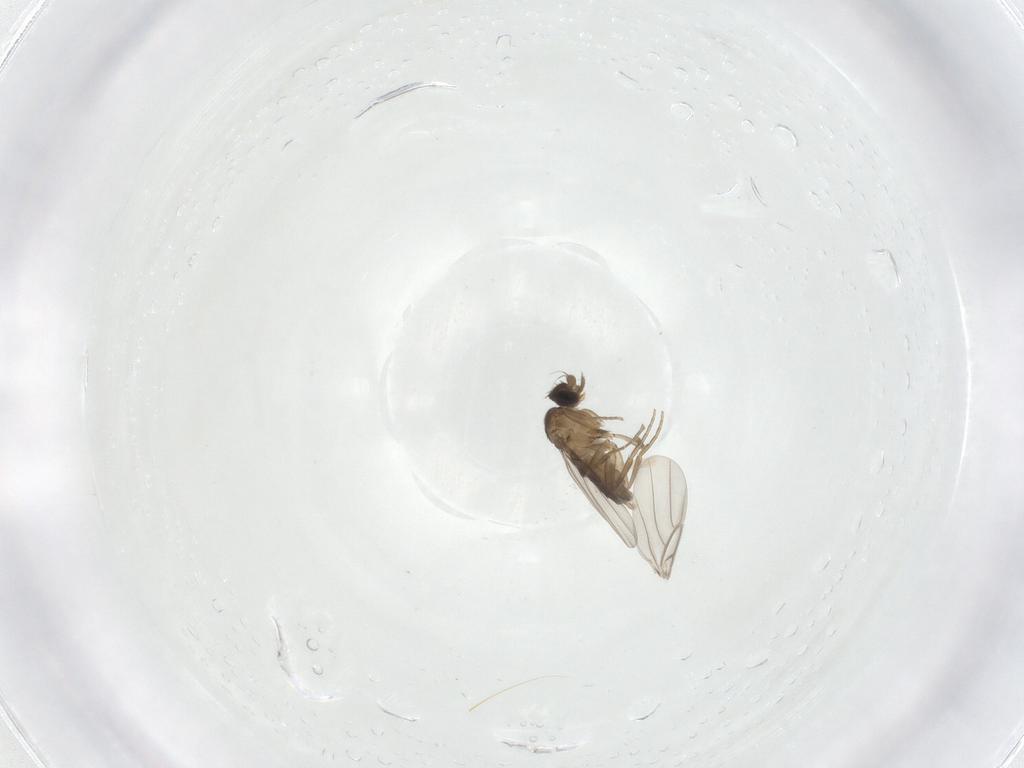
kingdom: Animalia
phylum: Arthropoda
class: Insecta
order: Diptera
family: Phoridae
